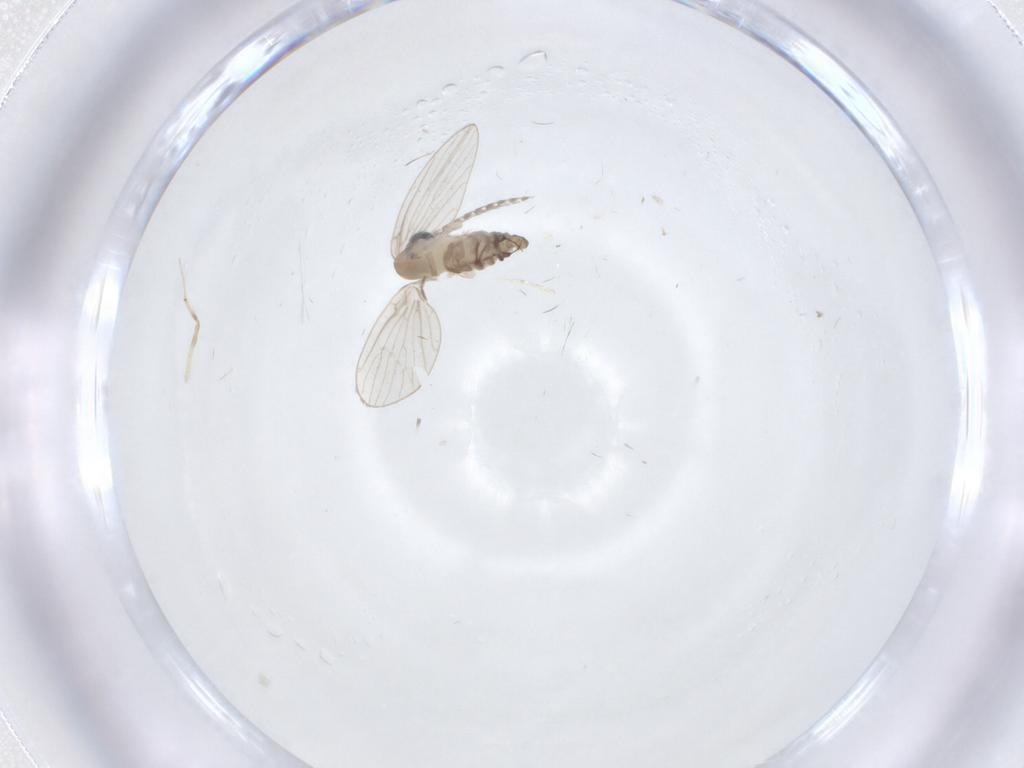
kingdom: Animalia
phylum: Arthropoda
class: Insecta
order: Diptera
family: Chironomidae
